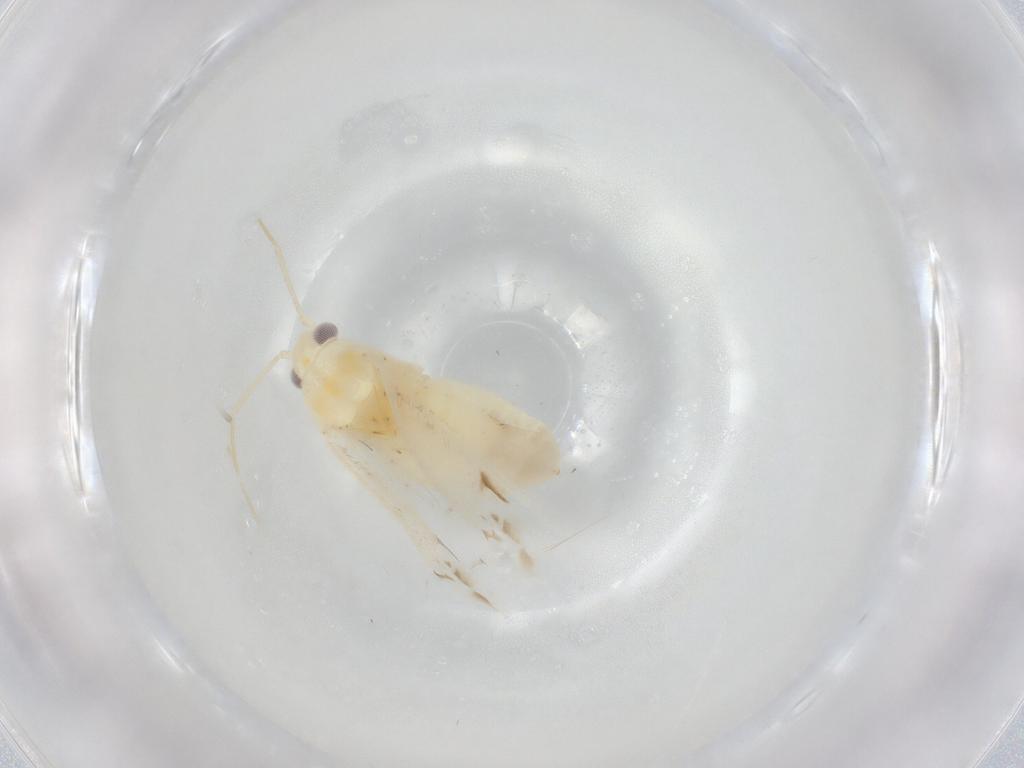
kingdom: Animalia
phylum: Arthropoda
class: Insecta
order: Hemiptera
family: Miridae
